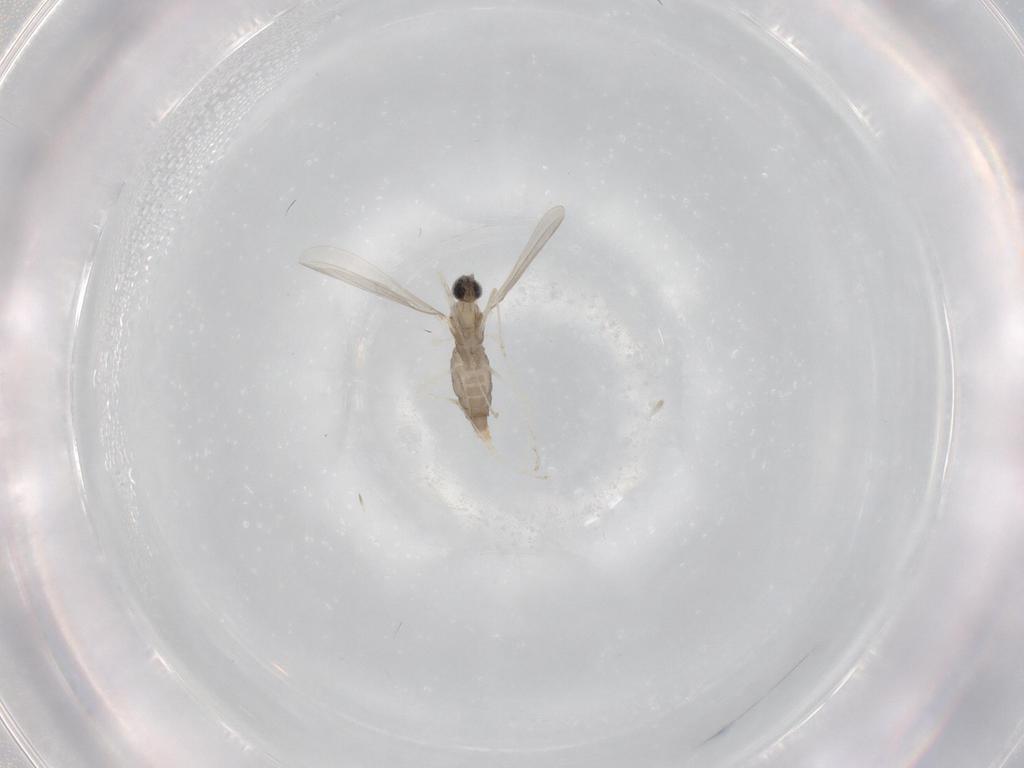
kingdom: Animalia
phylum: Arthropoda
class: Insecta
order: Diptera
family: Cecidomyiidae
